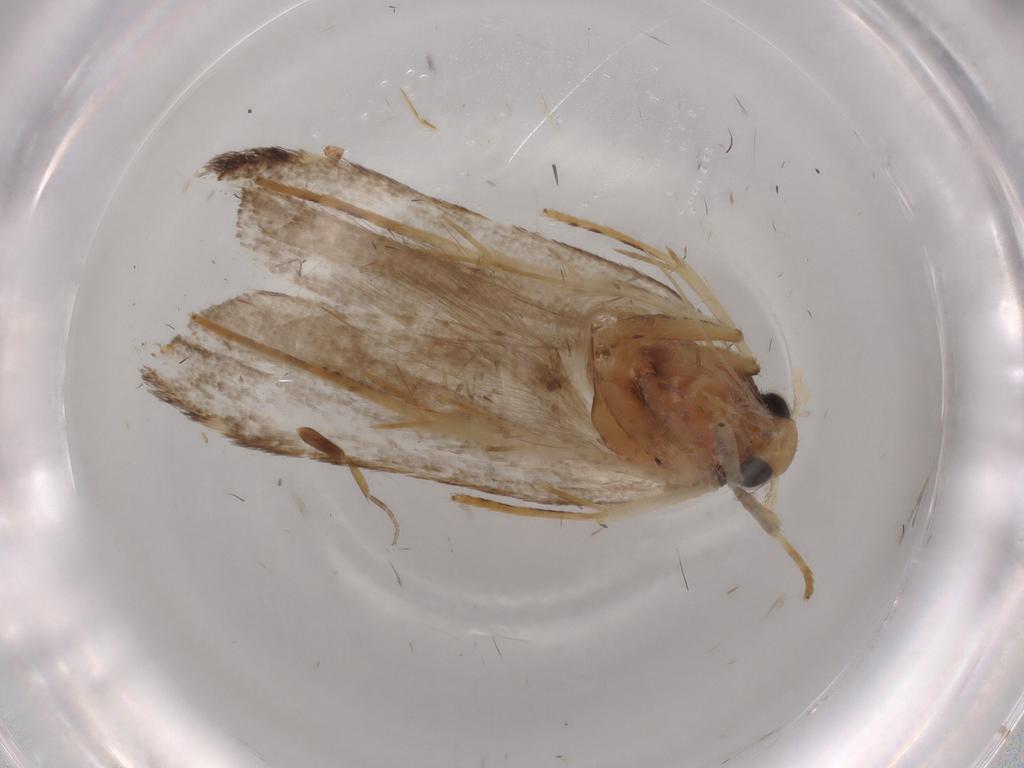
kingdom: Animalia
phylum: Arthropoda
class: Insecta
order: Lepidoptera
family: Lecithoceridae
